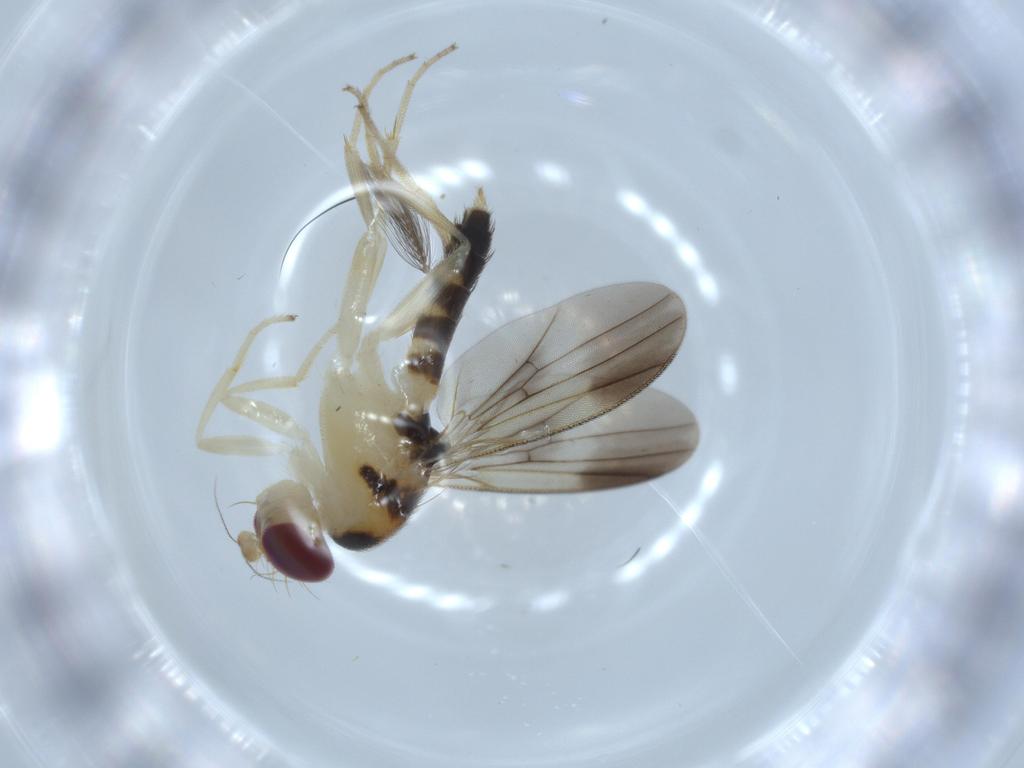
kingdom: Animalia
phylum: Arthropoda
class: Insecta
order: Diptera
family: Clusiidae
